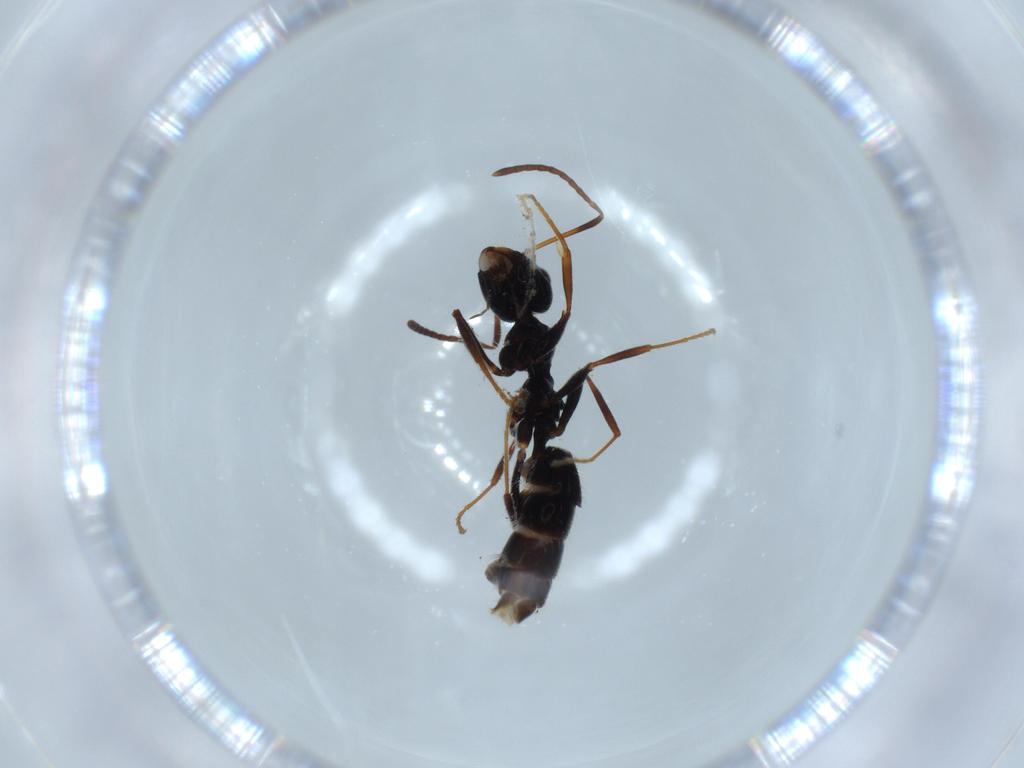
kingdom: Animalia
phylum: Arthropoda
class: Insecta
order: Hymenoptera
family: Formicidae
